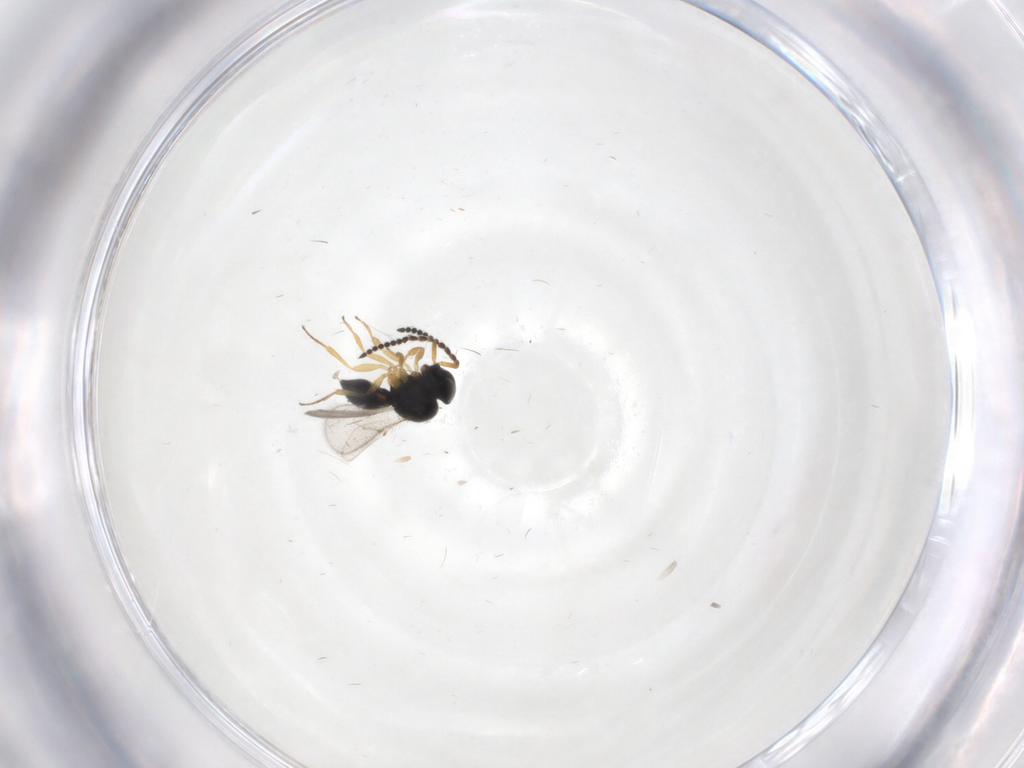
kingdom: Animalia
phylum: Arthropoda
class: Insecta
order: Hymenoptera
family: Scelionidae
